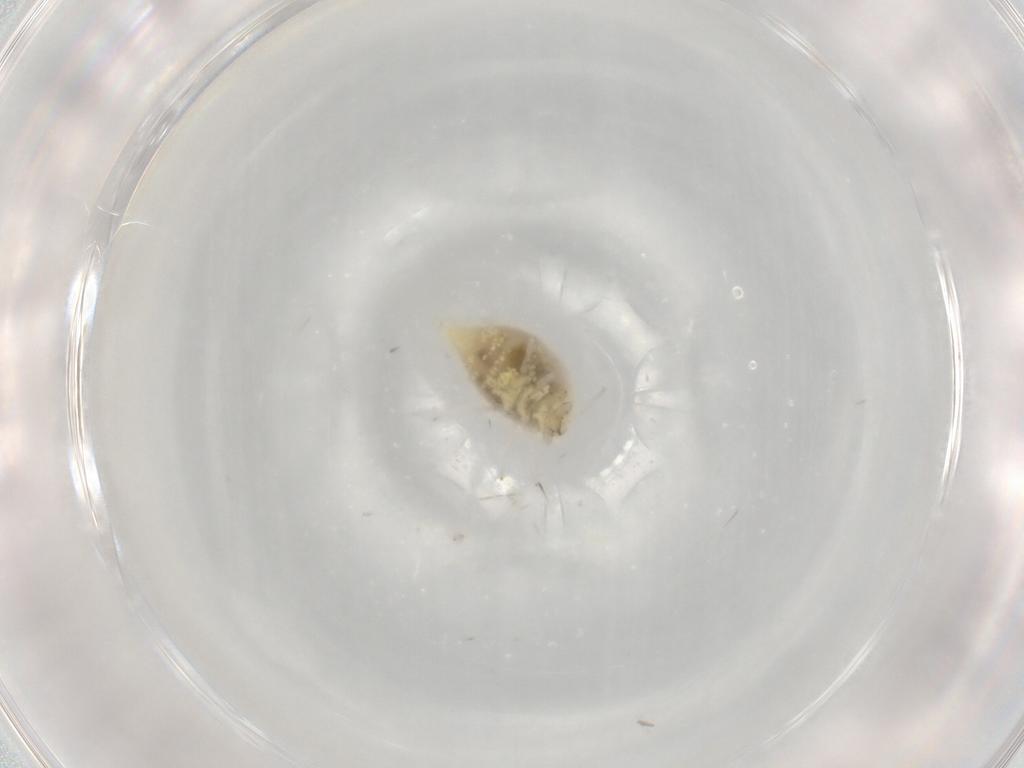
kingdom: Animalia
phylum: Arthropoda
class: Insecta
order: Neuroptera
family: Coniopterygidae
